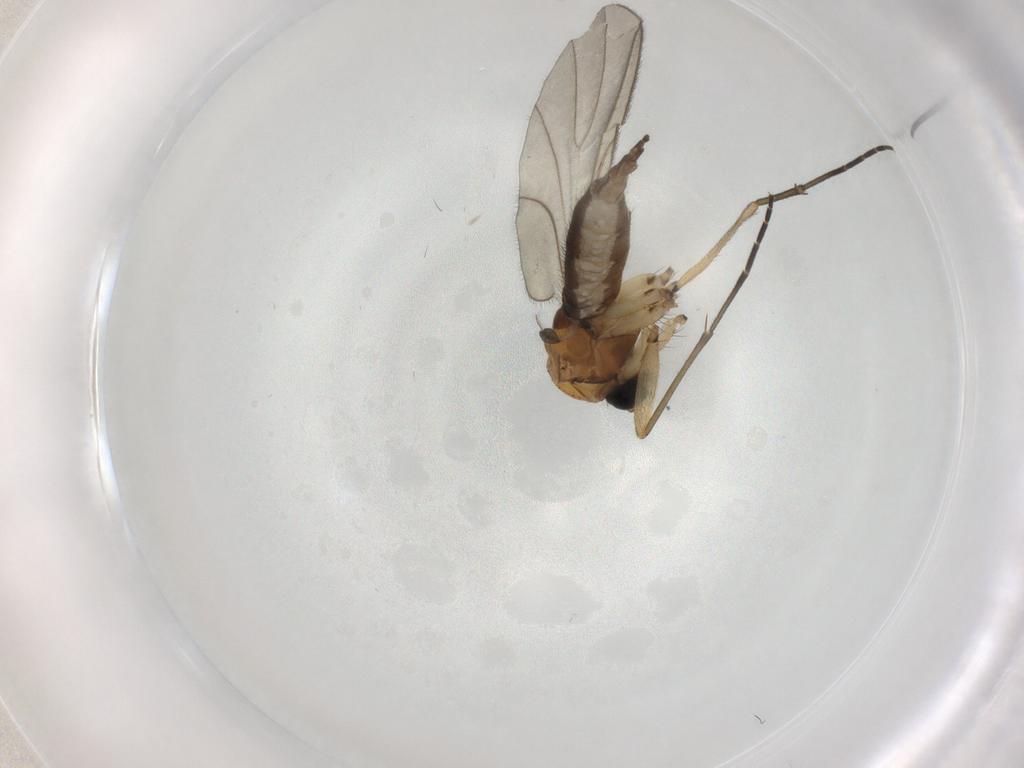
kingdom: Animalia
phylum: Arthropoda
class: Insecta
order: Diptera
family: Sciaridae
